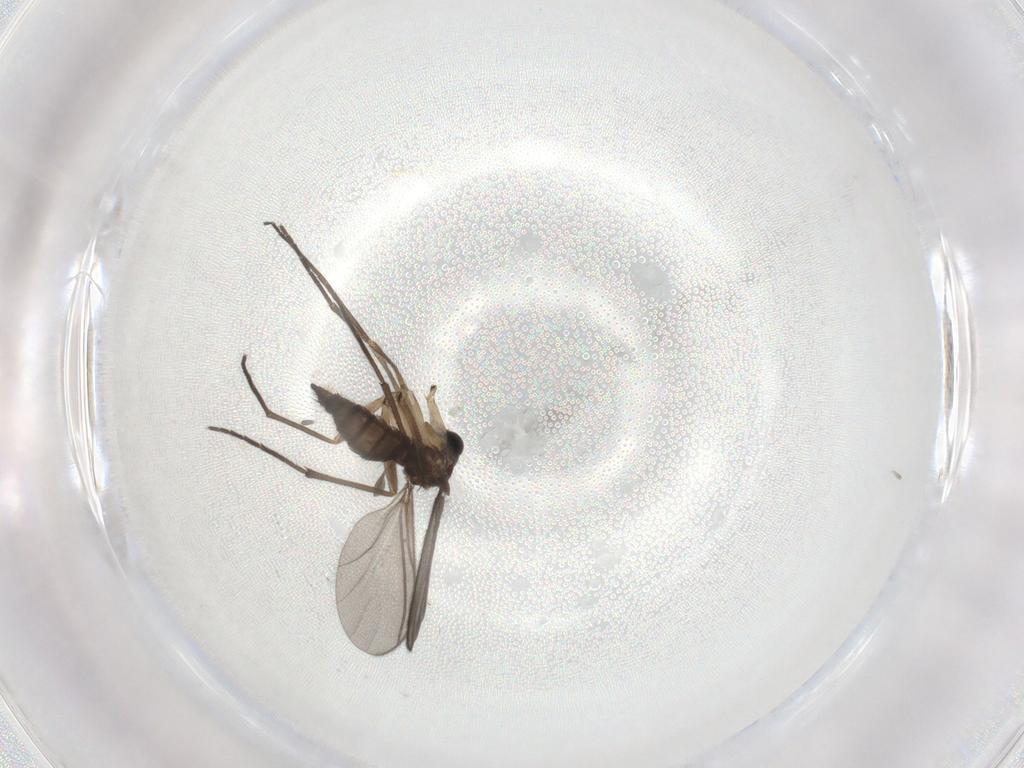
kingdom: Animalia
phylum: Arthropoda
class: Insecta
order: Diptera
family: Sciaridae
